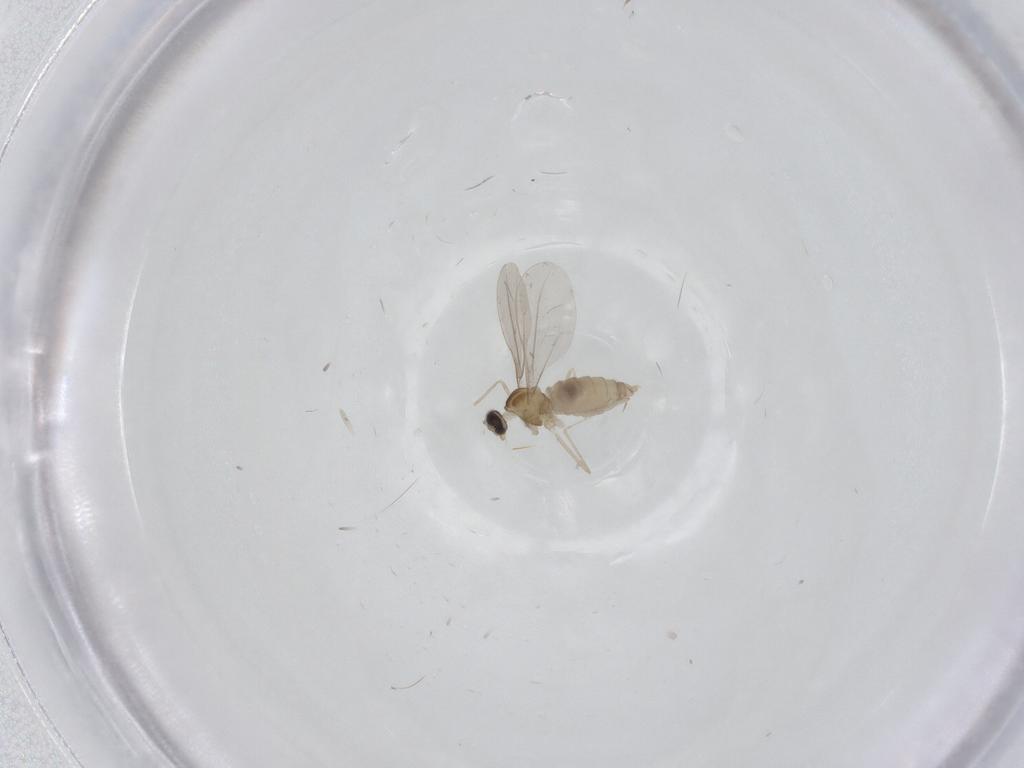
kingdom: Animalia
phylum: Arthropoda
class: Insecta
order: Diptera
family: Cecidomyiidae
